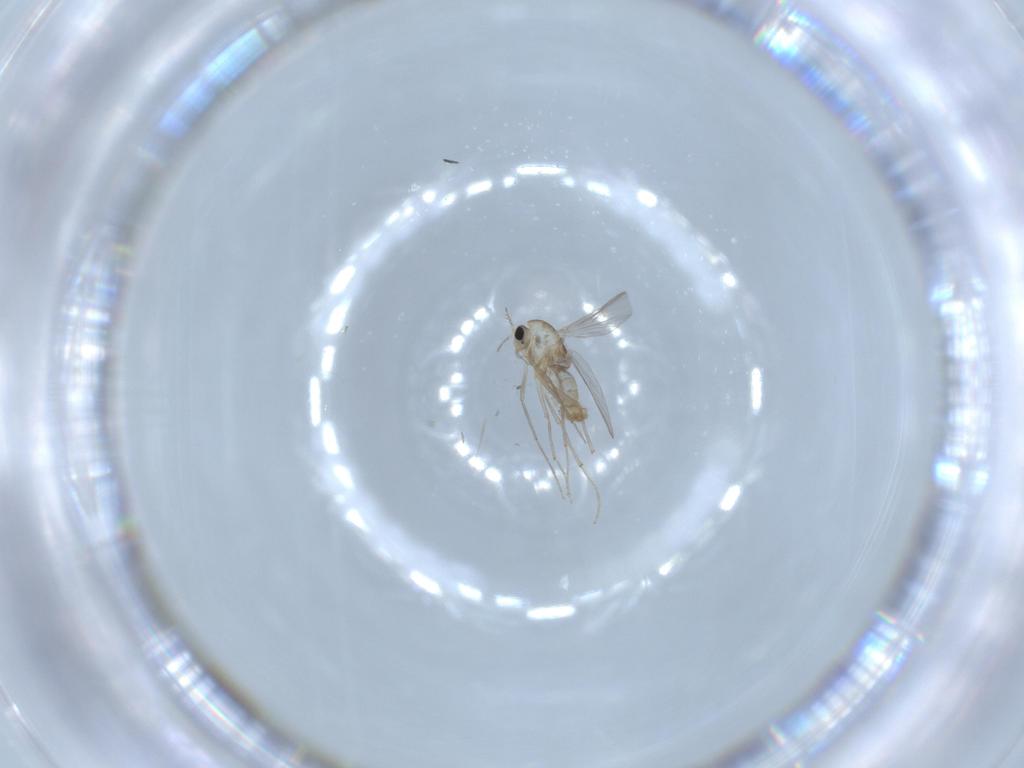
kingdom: Animalia
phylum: Arthropoda
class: Insecta
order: Diptera
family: Chironomidae
